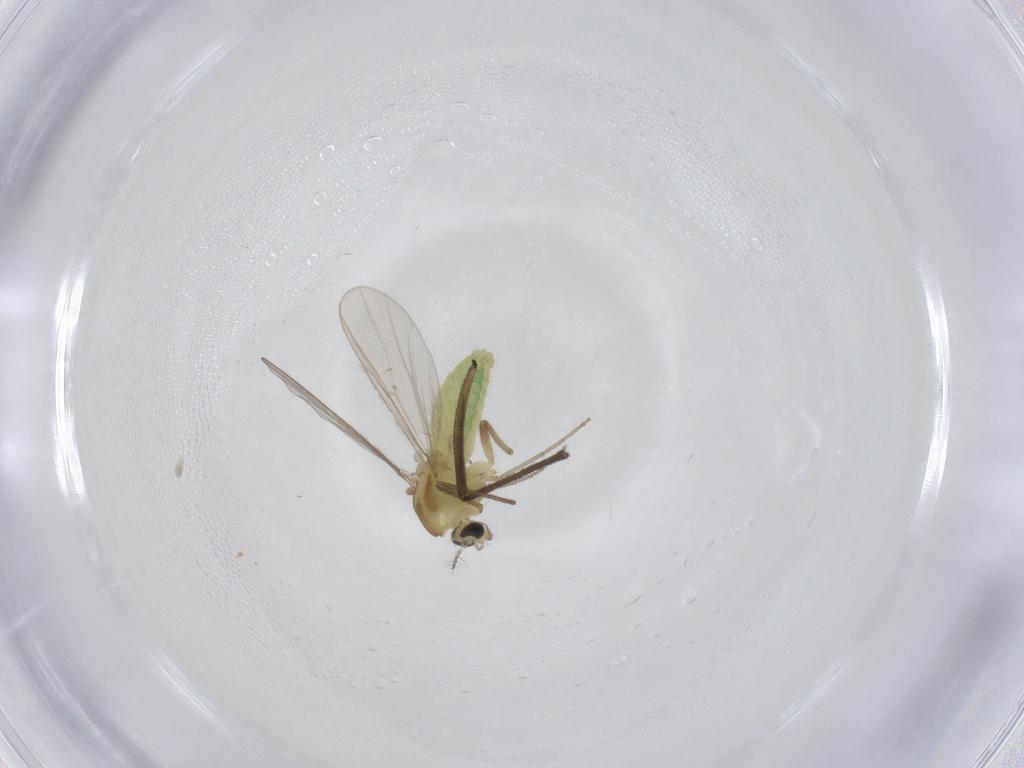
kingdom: Animalia
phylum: Arthropoda
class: Insecta
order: Diptera
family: Chironomidae
